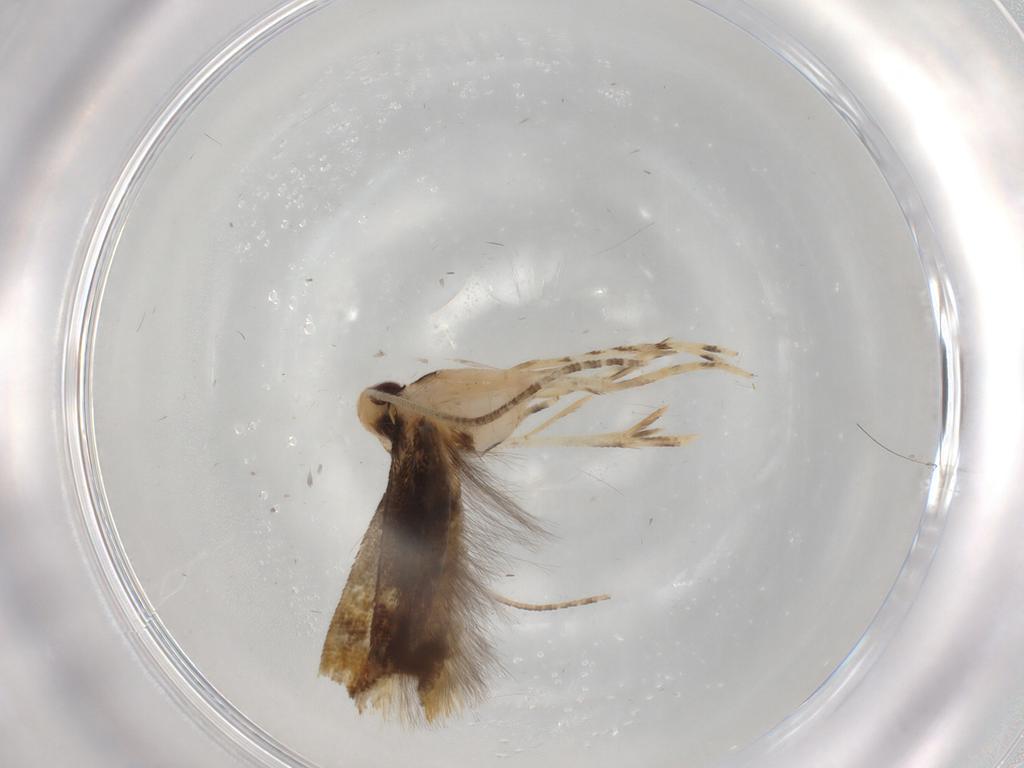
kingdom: Animalia
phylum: Arthropoda
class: Insecta
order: Lepidoptera
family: Momphidae
